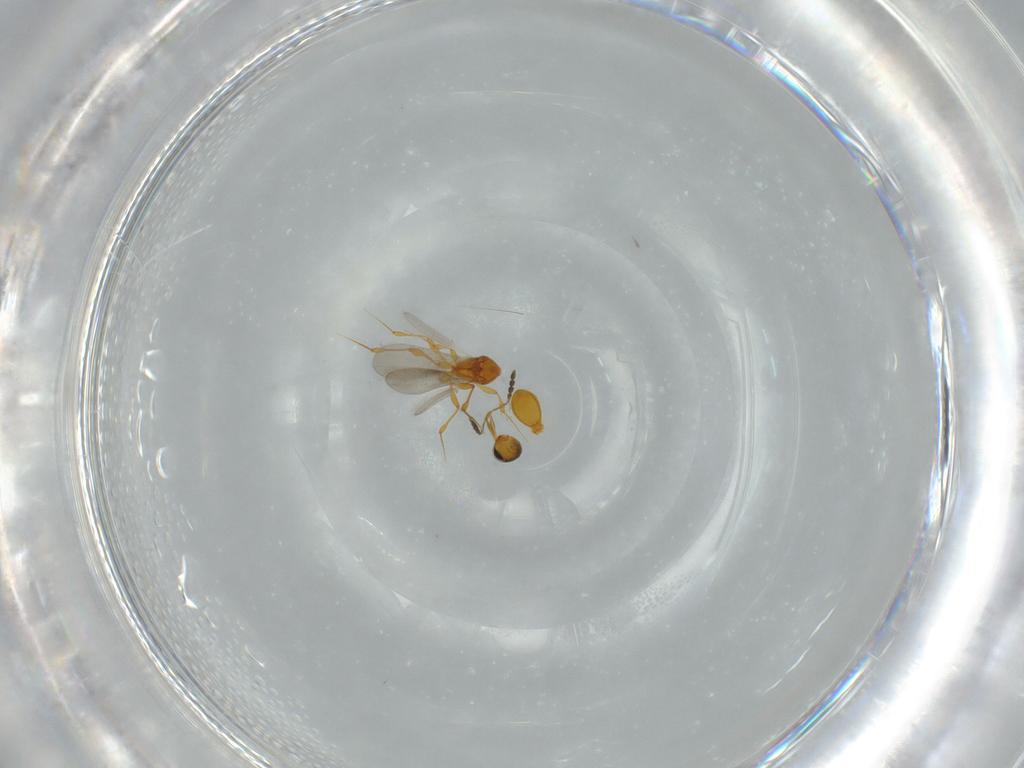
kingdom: Animalia
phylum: Arthropoda
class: Insecta
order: Hymenoptera
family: Platygastridae
